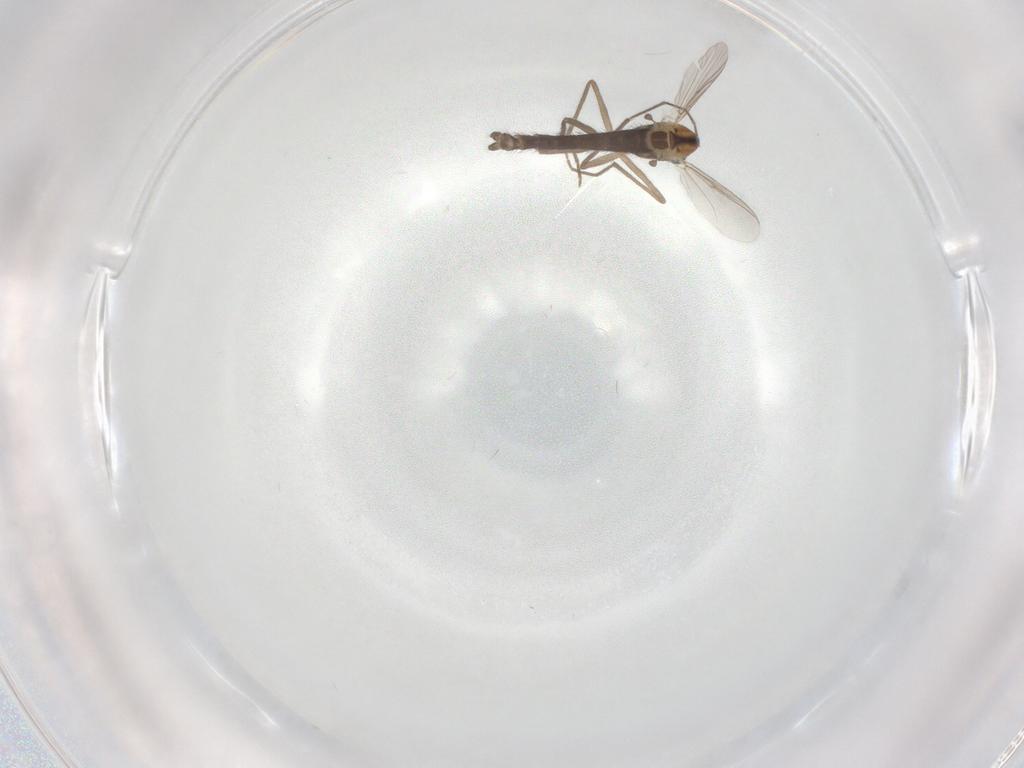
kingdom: Animalia
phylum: Arthropoda
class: Insecta
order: Diptera
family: Chironomidae
